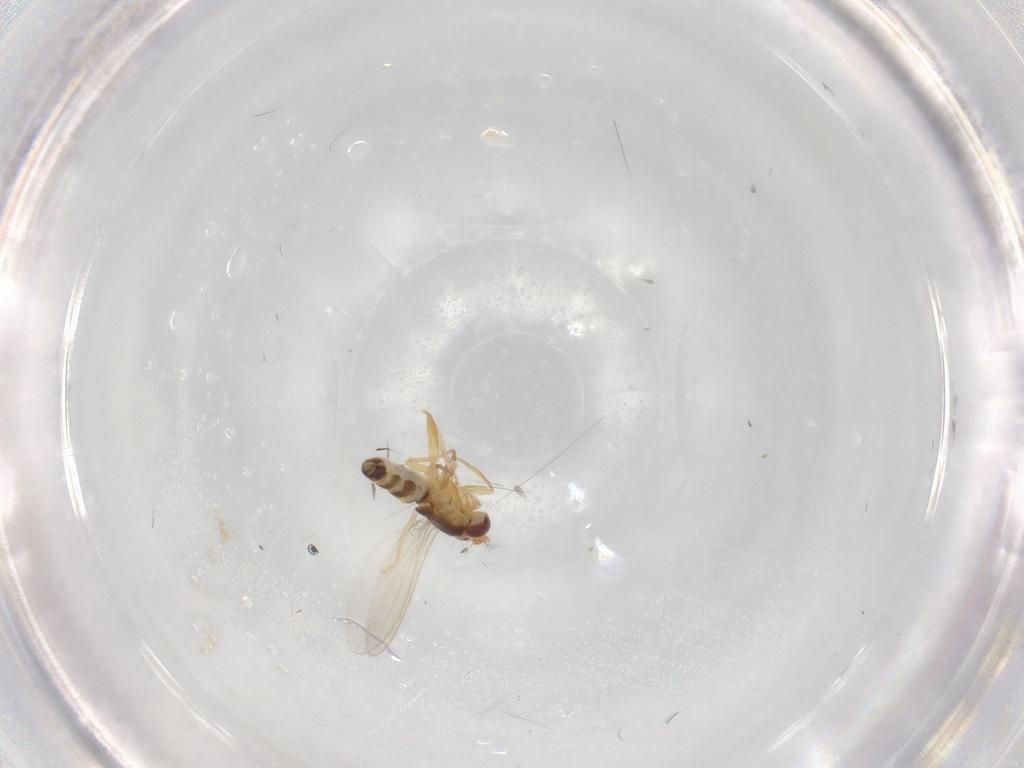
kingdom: Animalia
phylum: Arthropoda
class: Insecta
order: Diptera
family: Periscelididae
